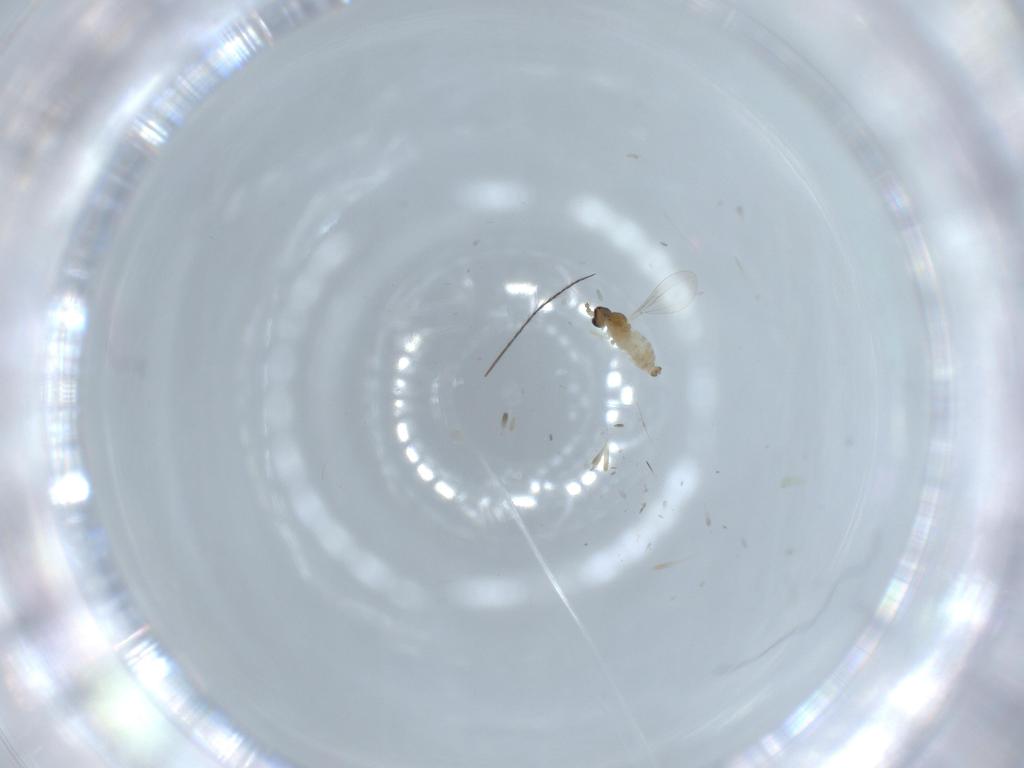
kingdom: Animalia
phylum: Arthropoda
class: Insecta
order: Diptera
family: Cecidomyiidae
